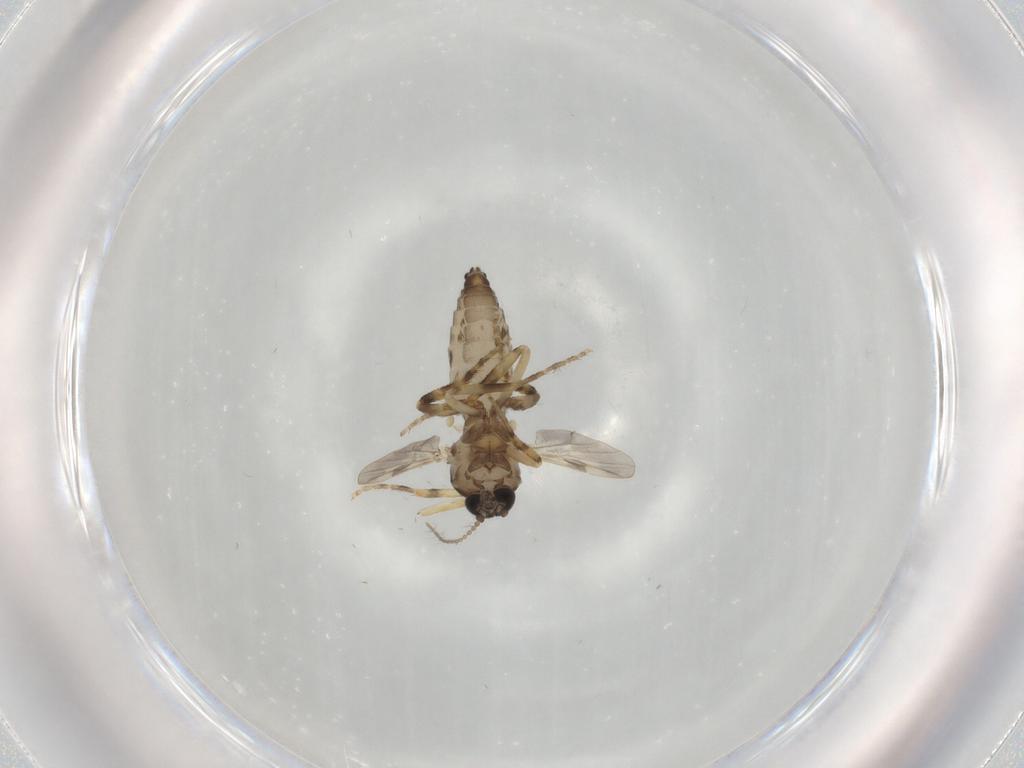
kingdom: Animalia
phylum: Arthropoda
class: Insecta
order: Diptera
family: Ceratopogonidae
